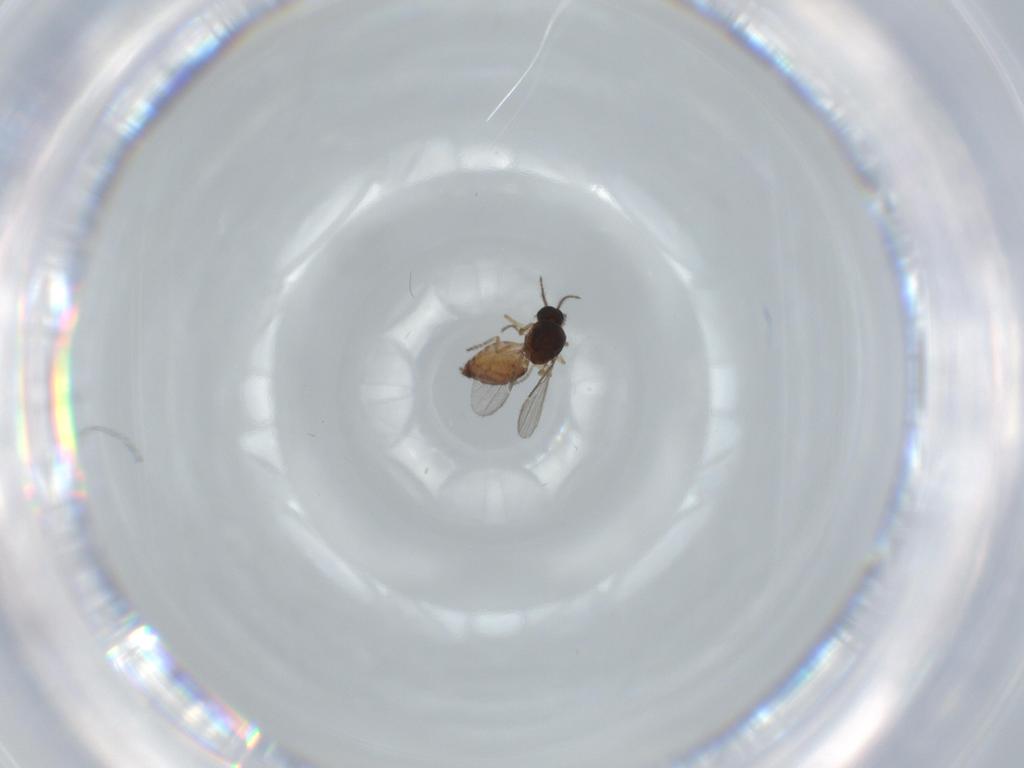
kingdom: Animalia
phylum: Arthropoda
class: Insecta
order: Diptera
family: Ceratopogonidae
